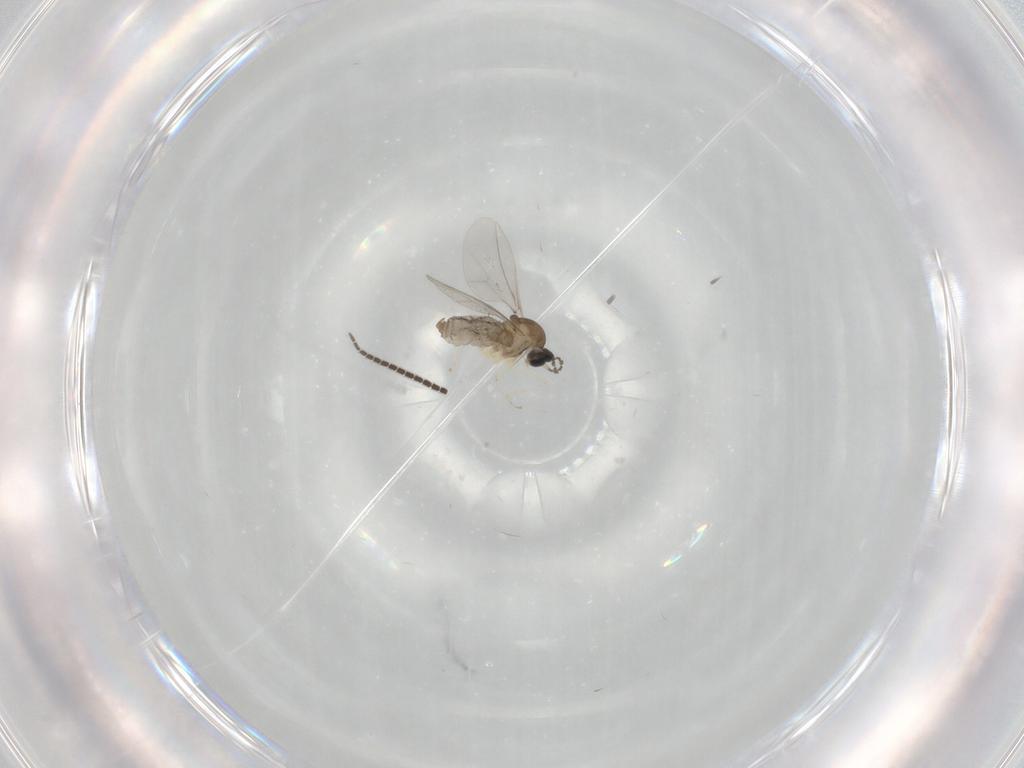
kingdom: Animalia
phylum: Arthropoda
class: Insecta
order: Diptera
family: Cecidomyiidae
